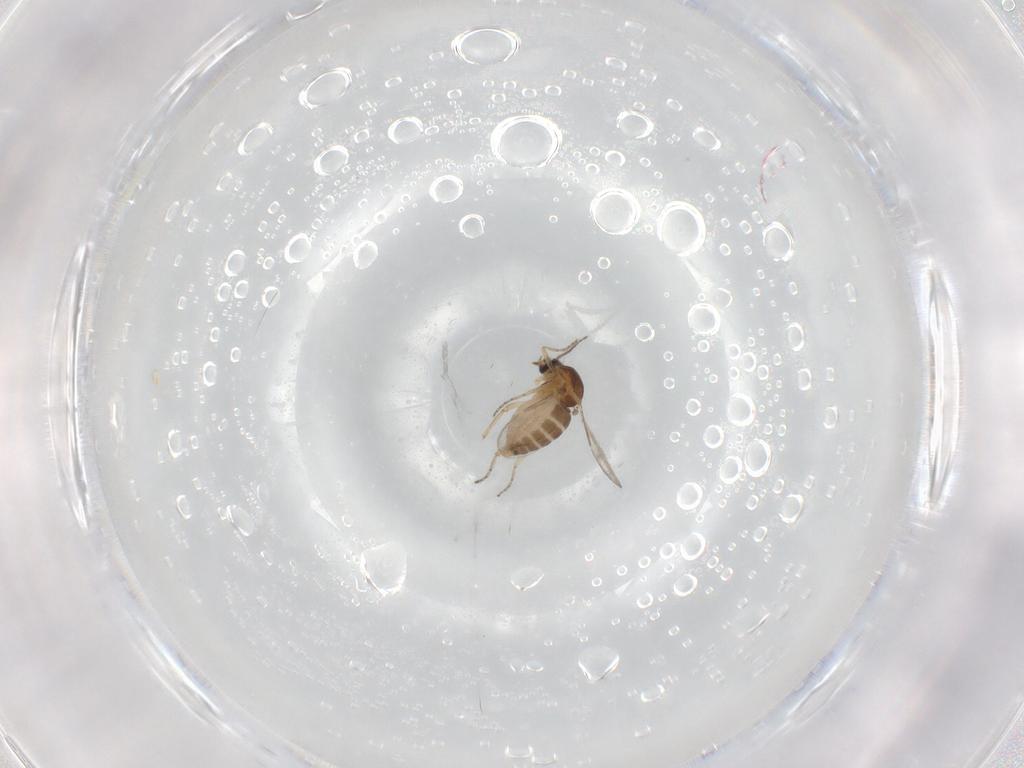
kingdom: Animalia
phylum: Arthropoda
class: Insecta
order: Diptera
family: Ceratopogonidae
